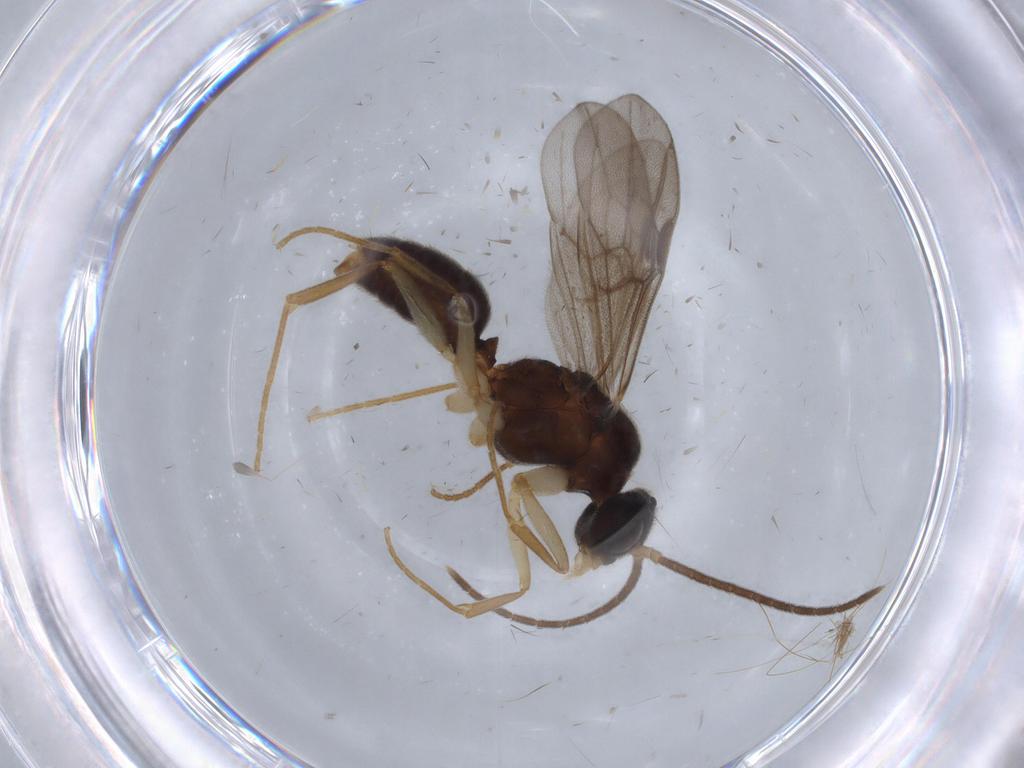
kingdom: Animalia
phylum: Arthropoda
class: Insecta
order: Hymenoptera
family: Formicidae
